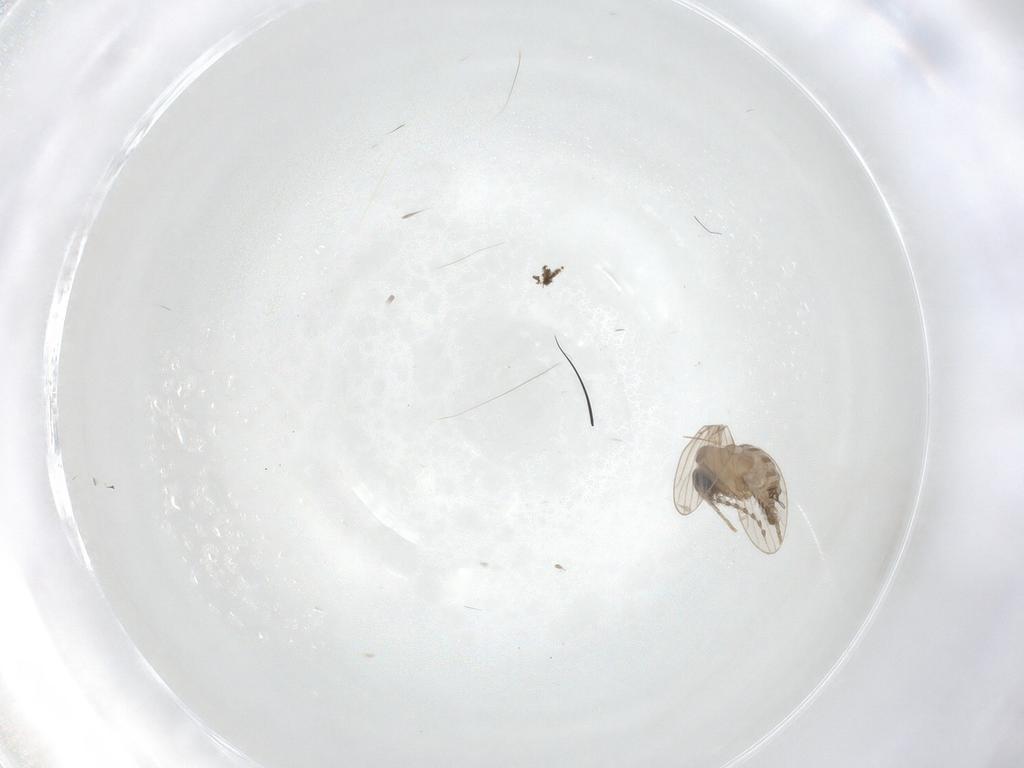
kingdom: Animalia
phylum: Arthropoda
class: Insecta
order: Diptera
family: Psychodidae
